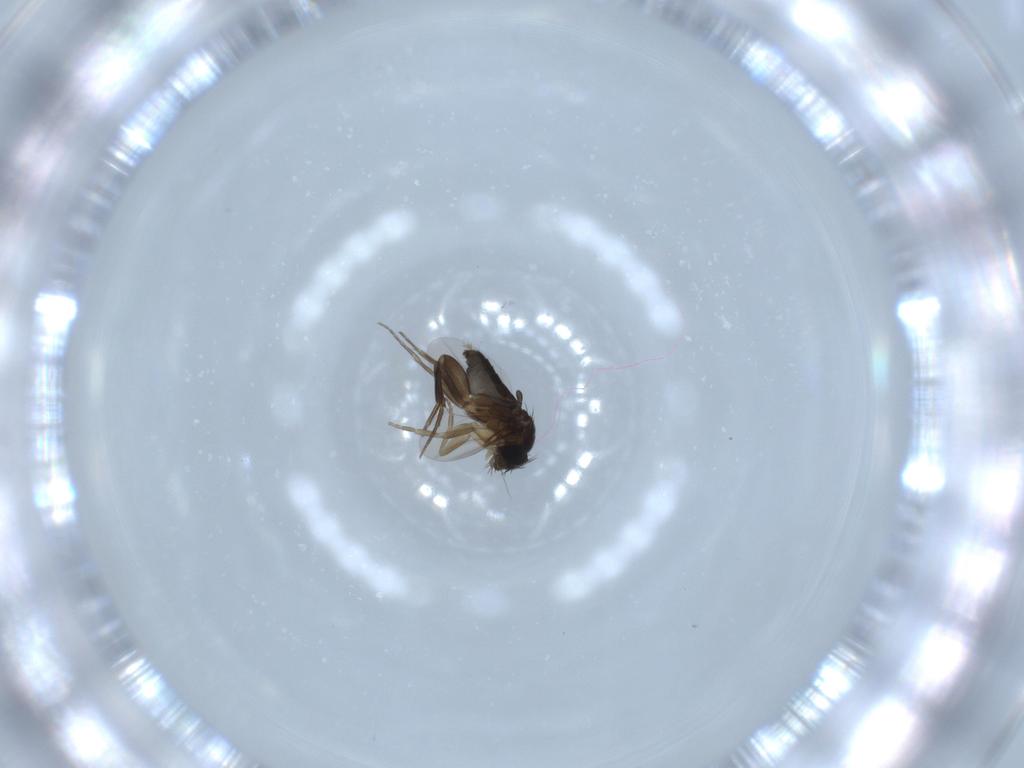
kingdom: Animalia
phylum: Arthropoda
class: Insecta
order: Diptera
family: Phoridae
